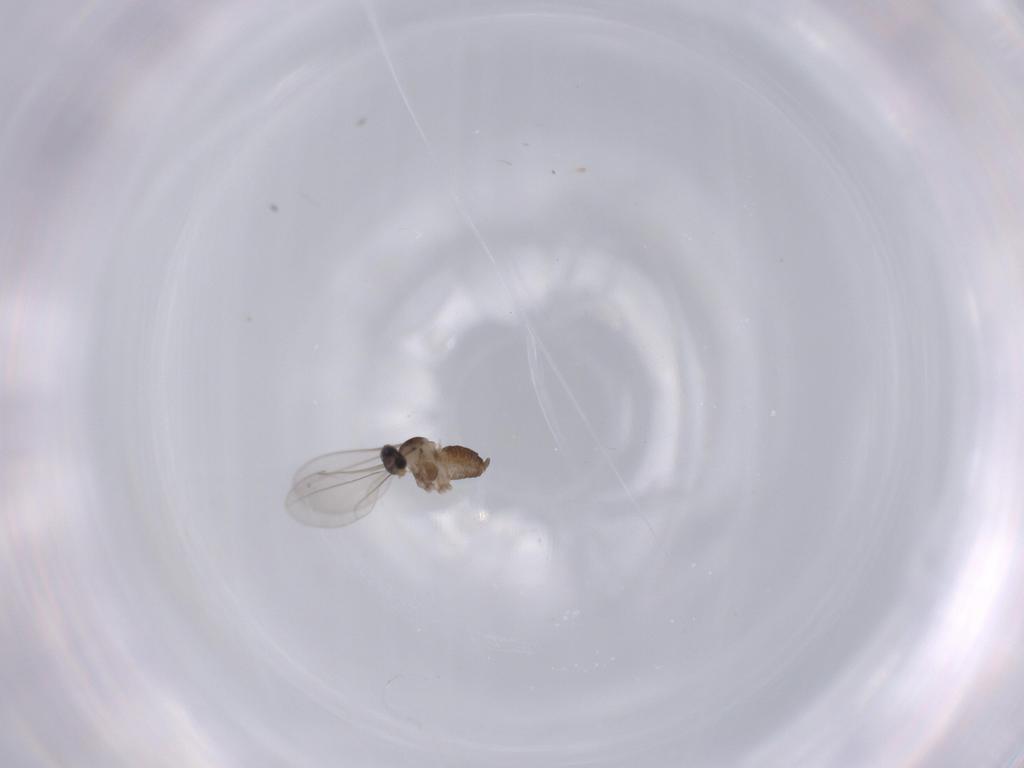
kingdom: Animalia
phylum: Arthropoda
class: Insecta
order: Diptera
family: Cecidomyiidae
